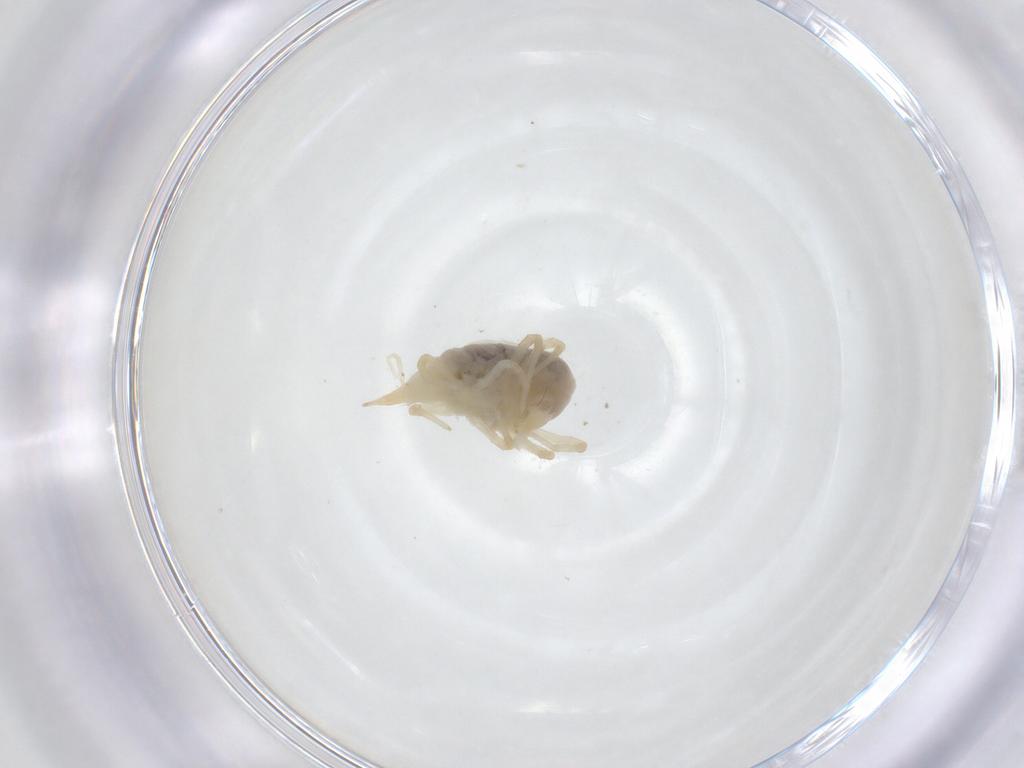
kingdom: Animalia
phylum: Arthropoda
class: Arachnida
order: Trombidiformes
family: Bdellidae
